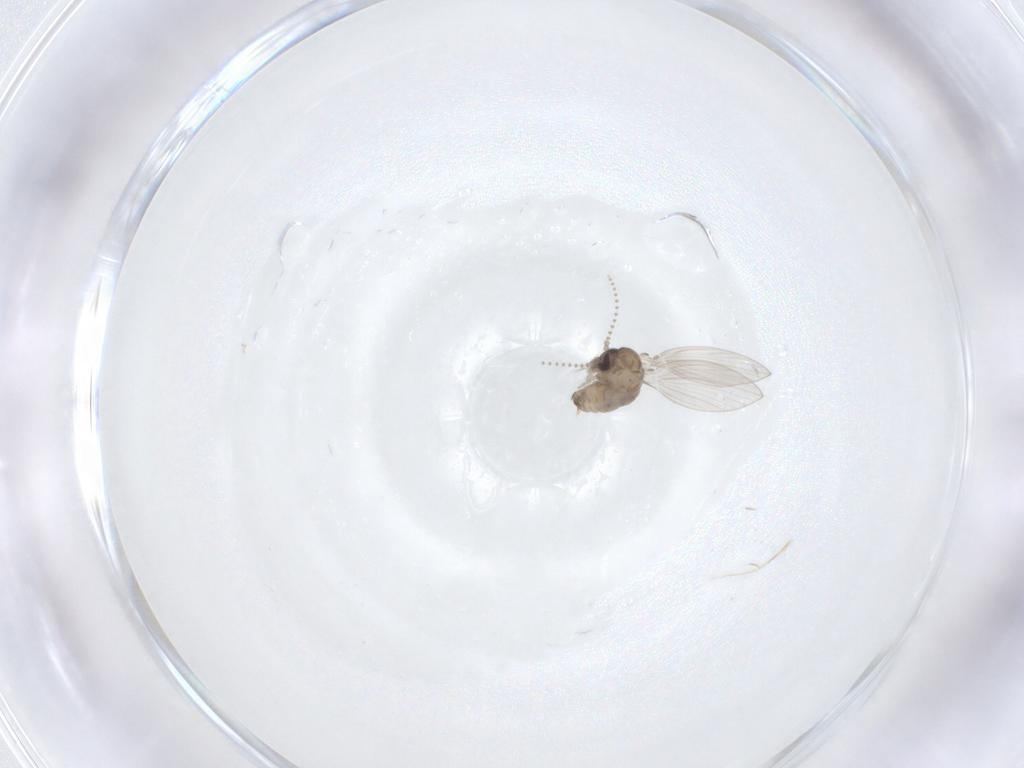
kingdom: Animalia
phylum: Arthropoda
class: Insecta
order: Diptera
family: Psychodidae
